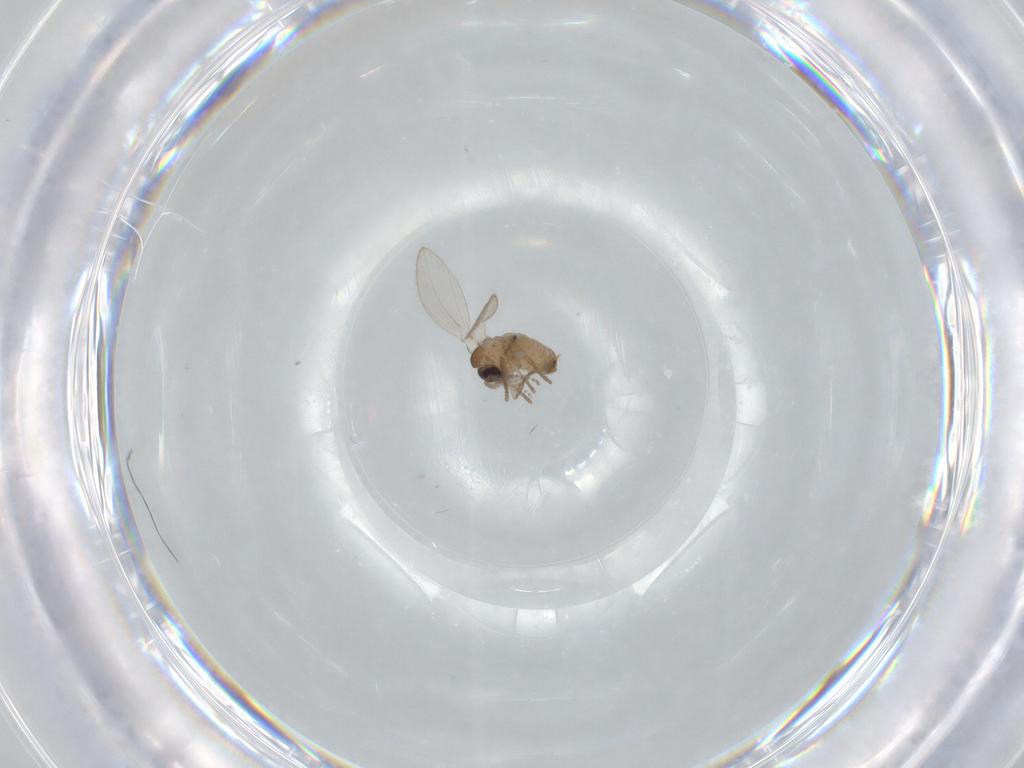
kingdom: Animalia
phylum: Arthropoda
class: Insecta
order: Diptera
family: Psychodidae
